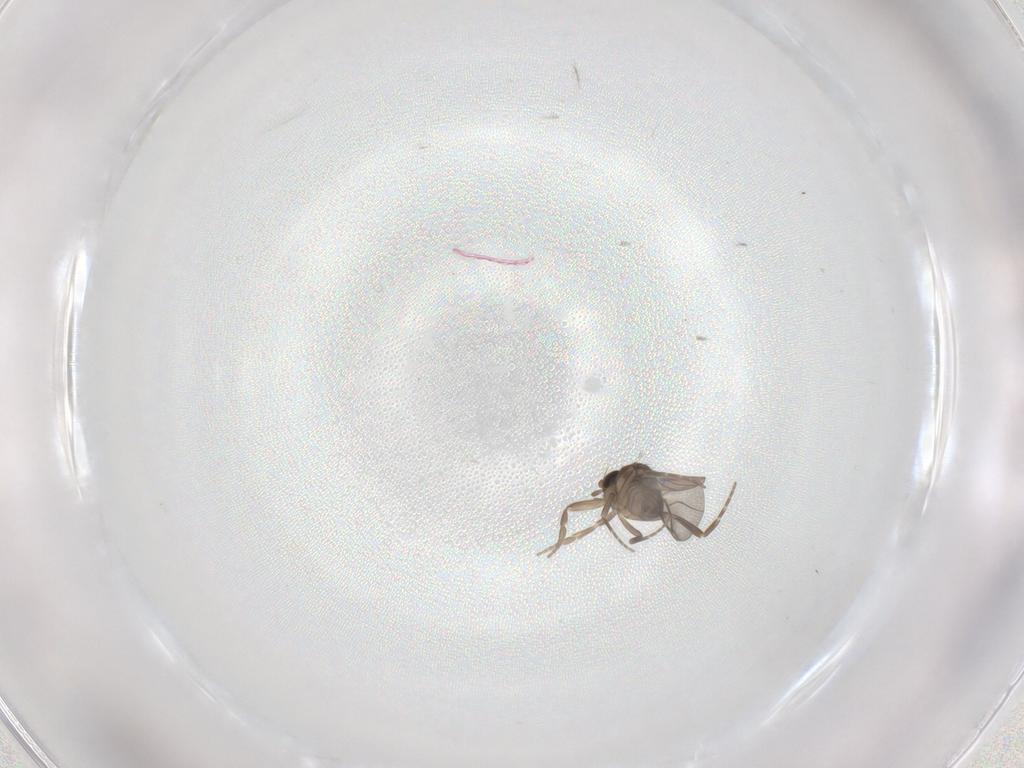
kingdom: Animalia
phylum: Arthropoda
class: Insecta
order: Diptera
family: Cecidomyiidae
